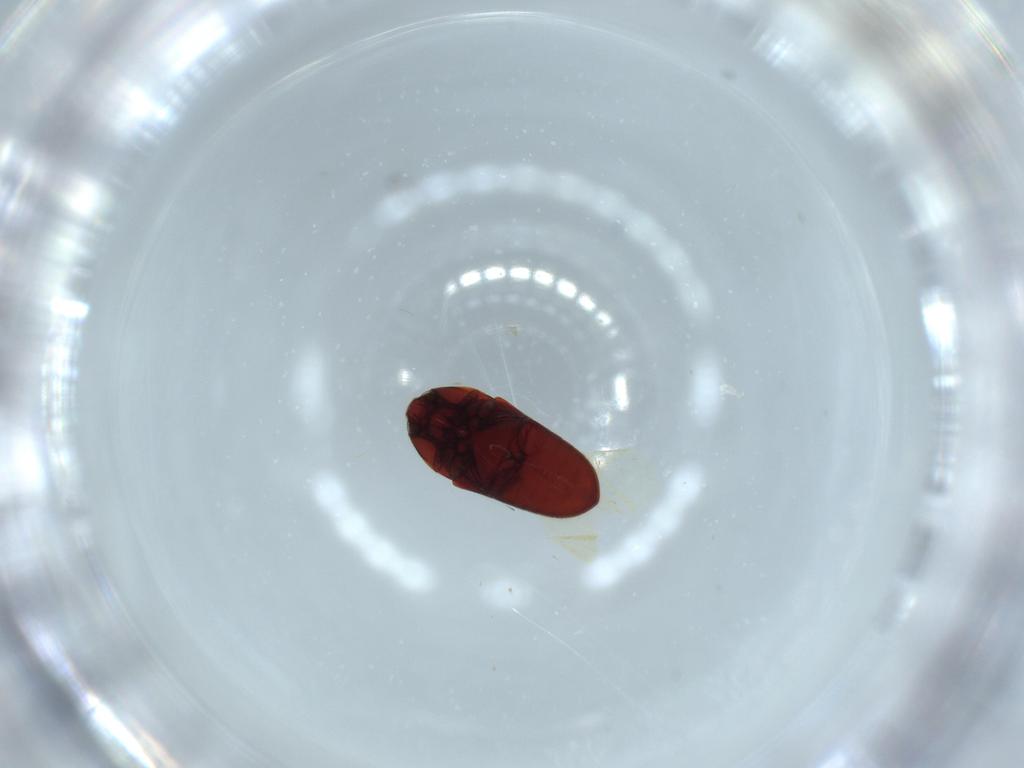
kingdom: Animalia
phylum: Arthropoda
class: Insecta
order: Coleoptera
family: Throscidae
